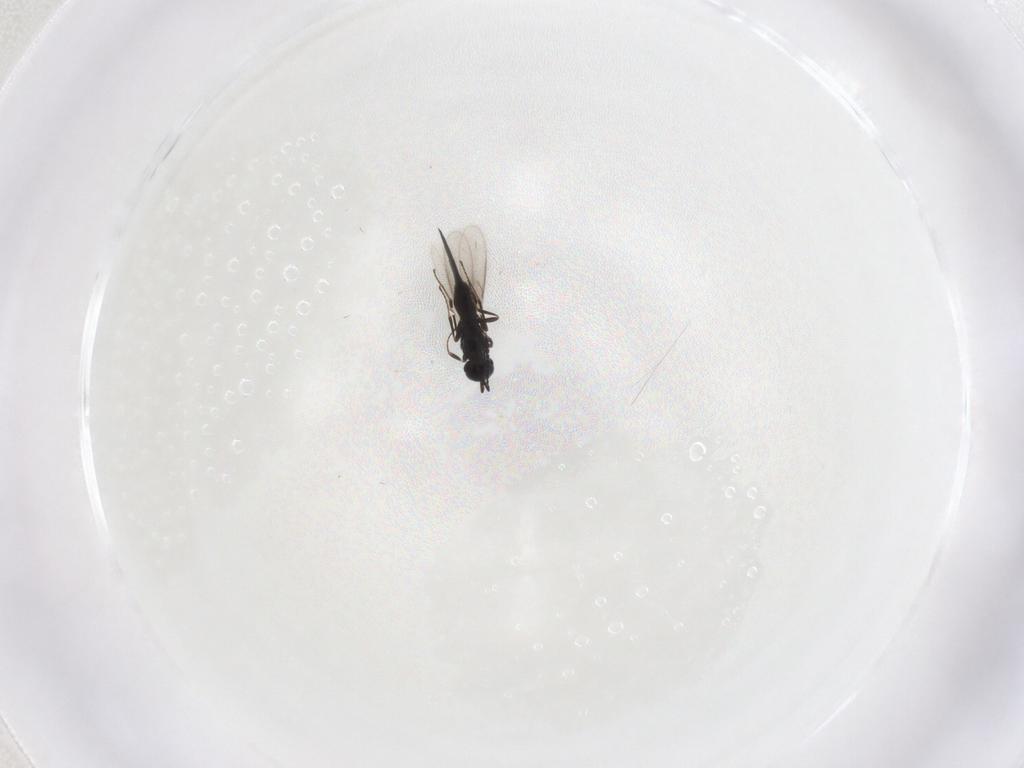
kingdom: Animalia
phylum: Arthropoda
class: Insecta
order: Hymenoptera
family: Scelionidae
